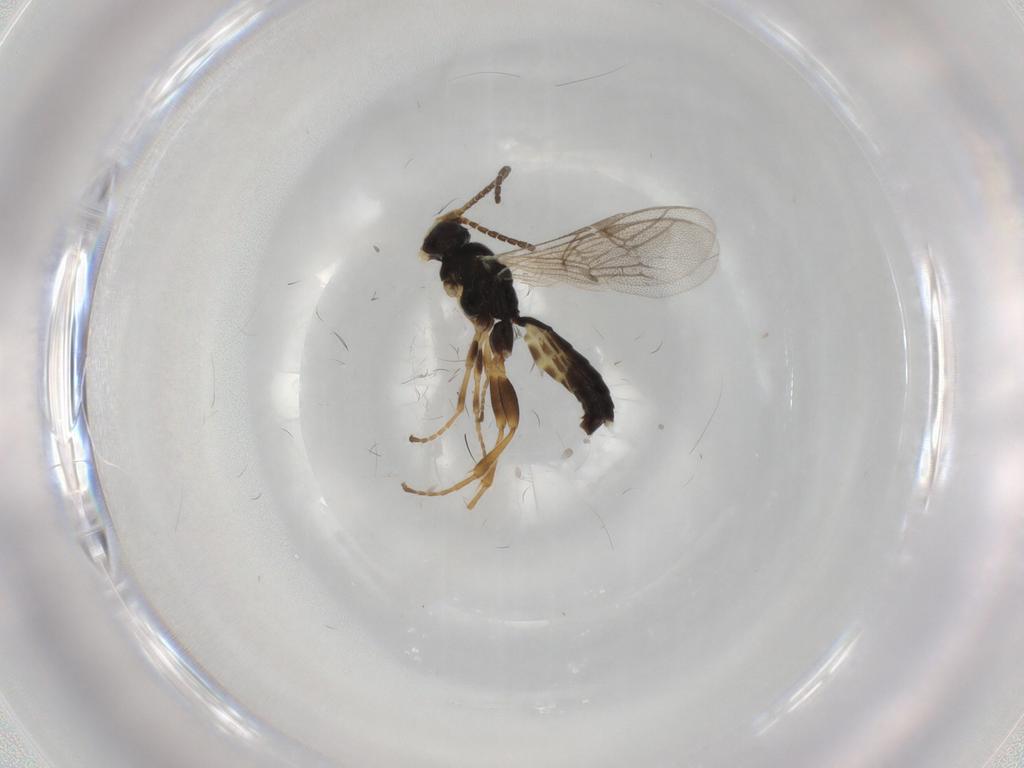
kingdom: Animalia
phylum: Arthropoda
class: Insecta
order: Hymenoptera
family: Ichneumonidae
